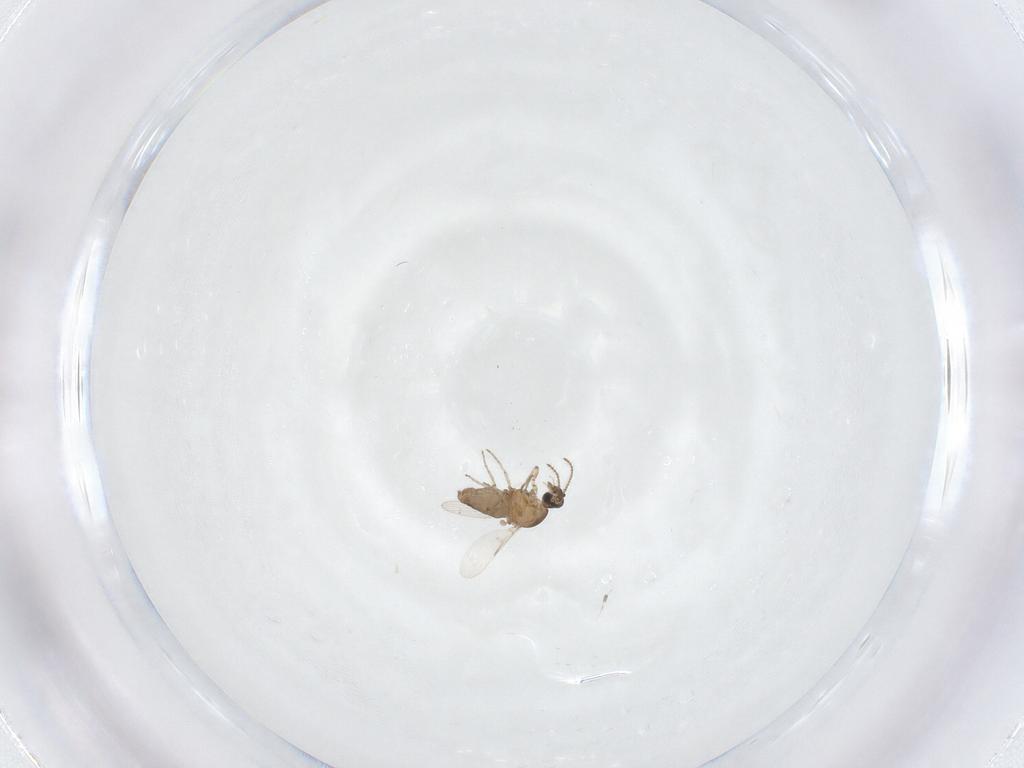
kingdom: Animalia
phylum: Arthropoda
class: Insecta
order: Diptera
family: Ceratopogonidae
